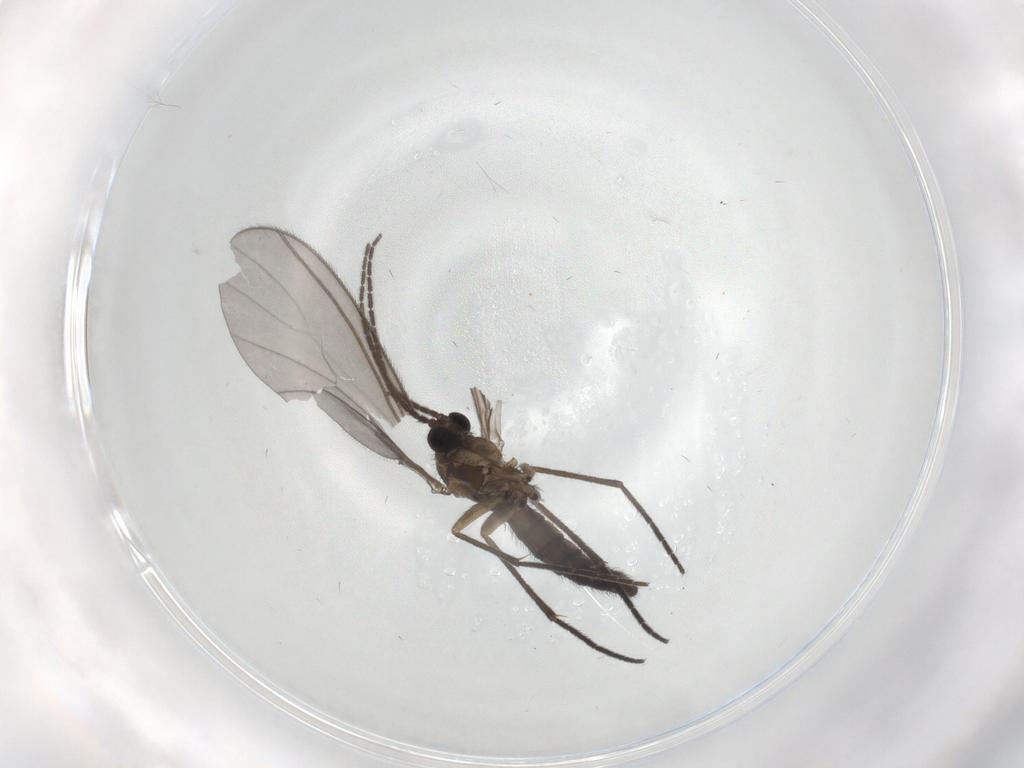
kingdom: Animalia
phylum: Arthropoda
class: Insecta
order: Diptera
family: Sciaridae
